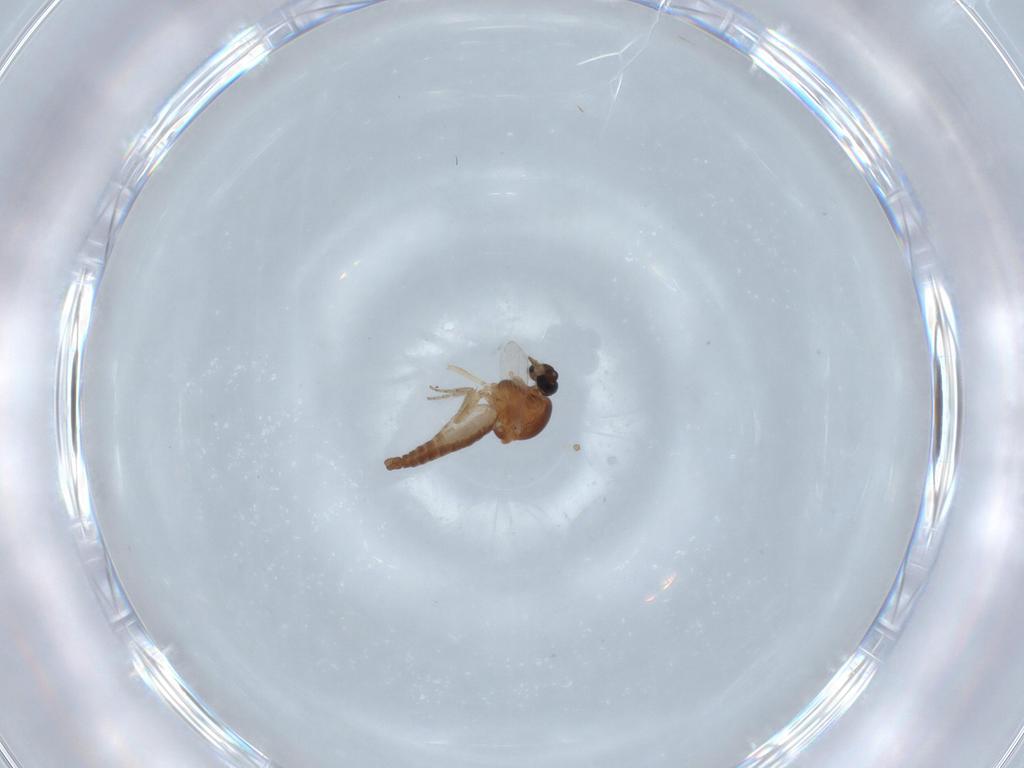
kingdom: Animalia
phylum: Arthropoda
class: Insecta
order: Diptera
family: Ceratopogonidae
